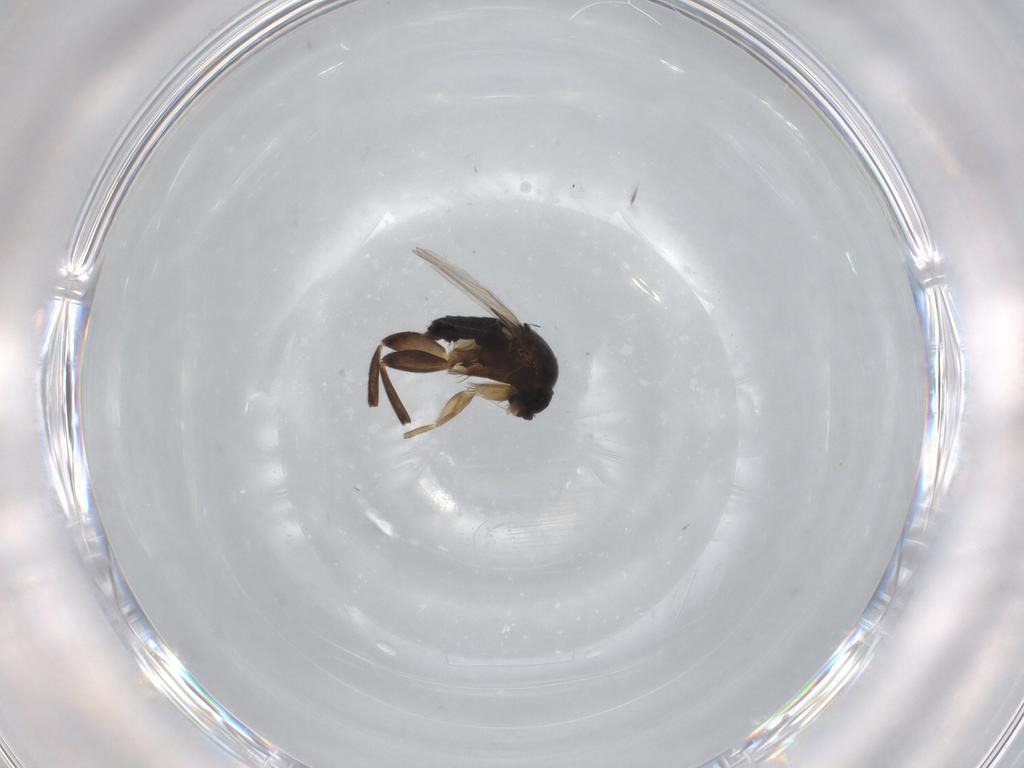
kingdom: Animalia
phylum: Arthropoda
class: Insecta
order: Diptera
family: Phoridae
